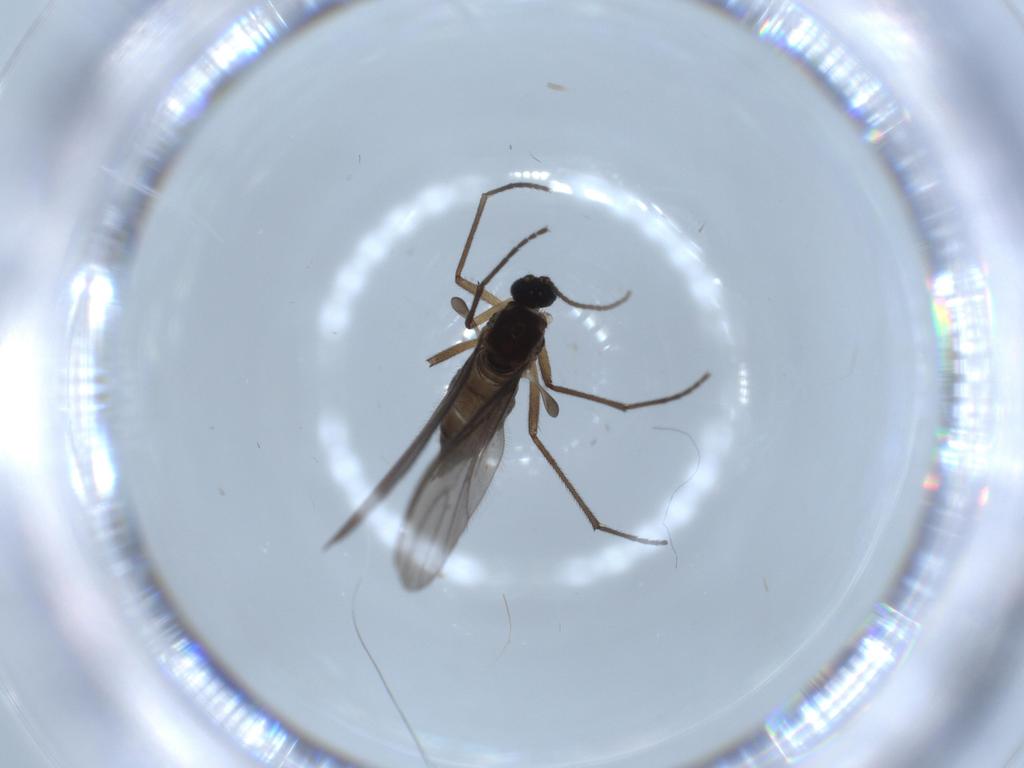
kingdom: Animalia
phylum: Arthropoda
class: Insecta
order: Diptera
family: Sciaridae
